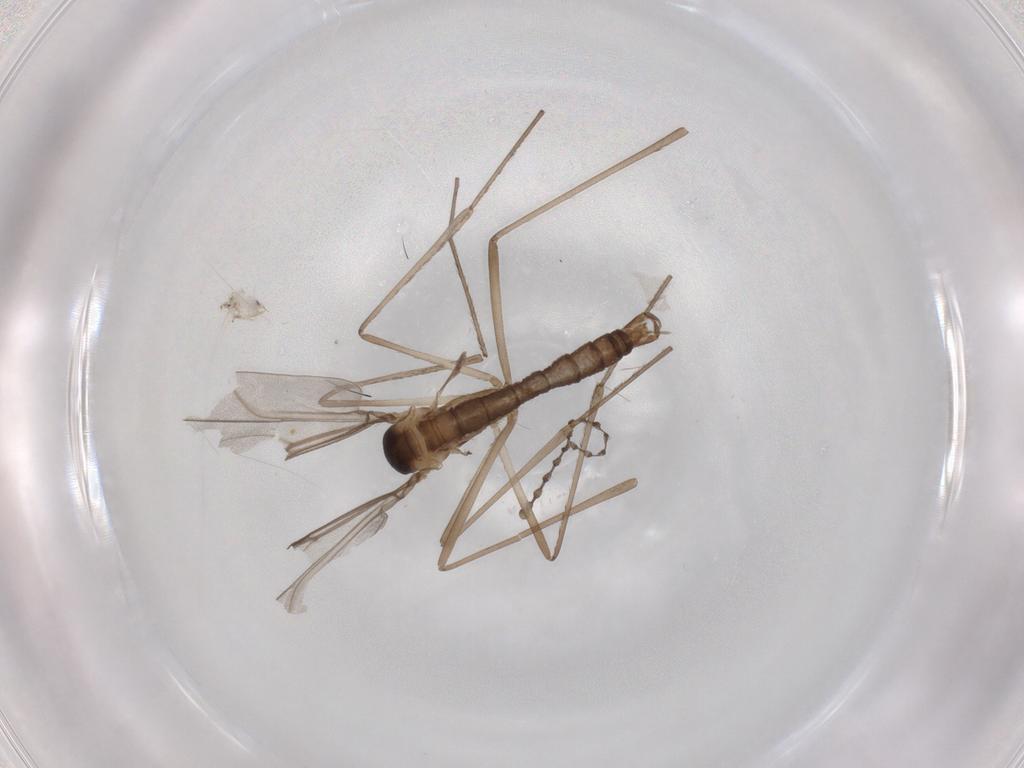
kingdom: Animalia
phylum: Arthropoda
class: Insecta
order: Diptera
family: Cecidomyiidae
